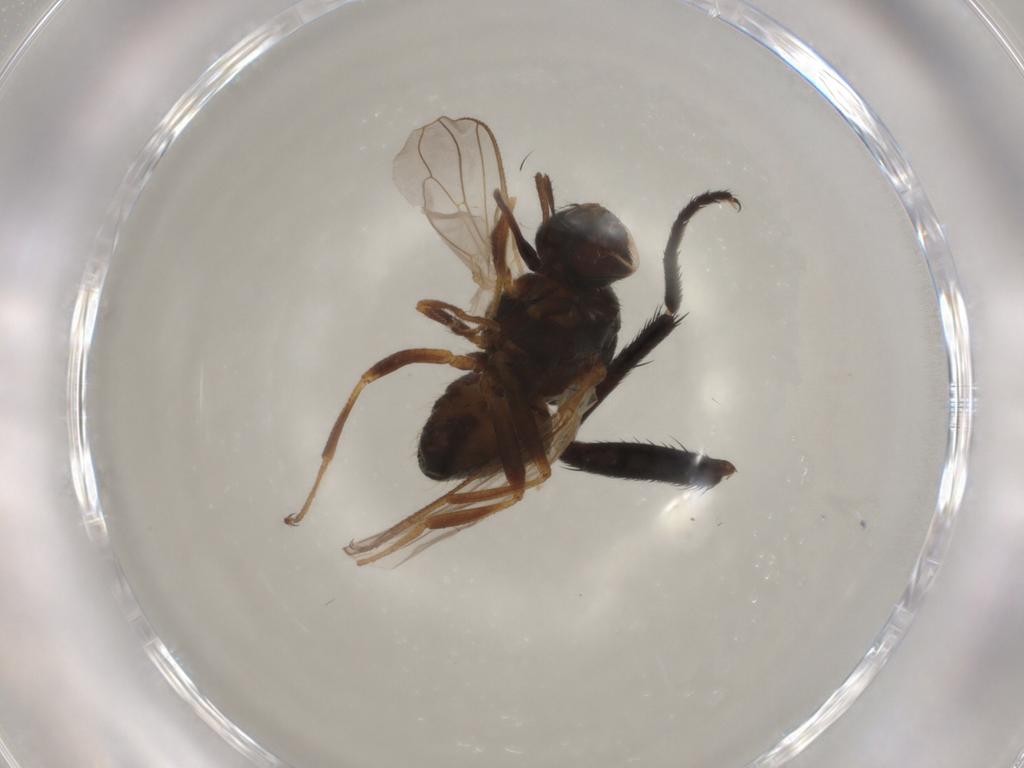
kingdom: Animalia
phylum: Arthropoda
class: Insecta
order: Diptera
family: Muscidae
